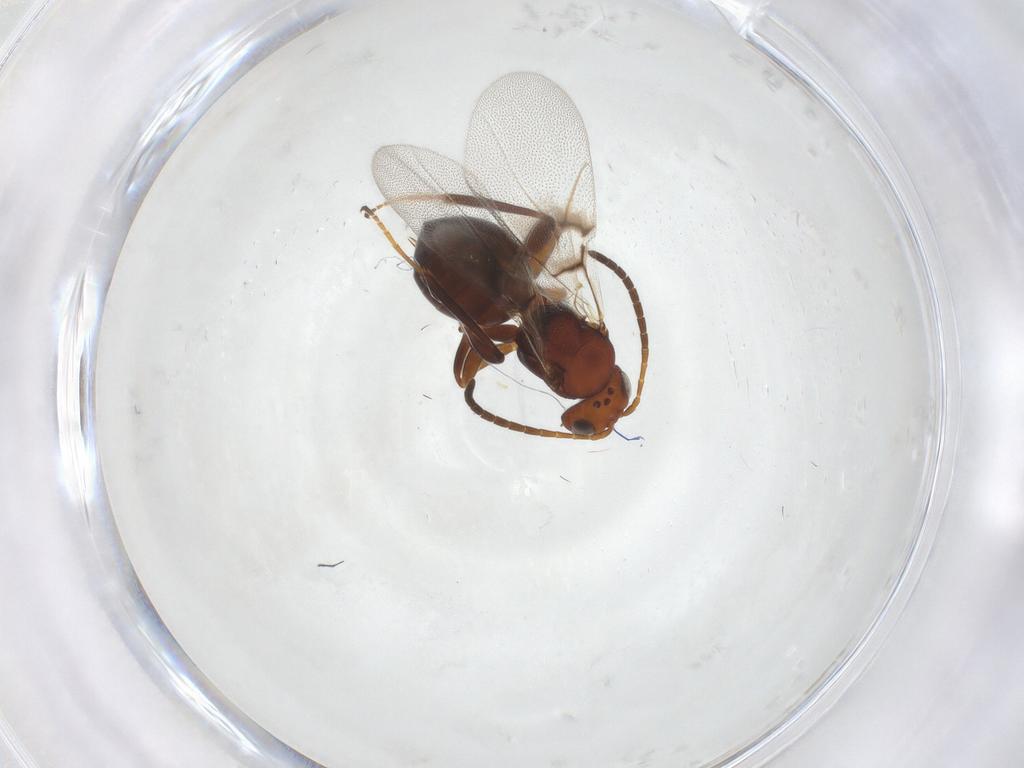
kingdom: Animalia
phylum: Arthropoda
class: Insecta
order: Hymenoptera
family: Cynipidae
